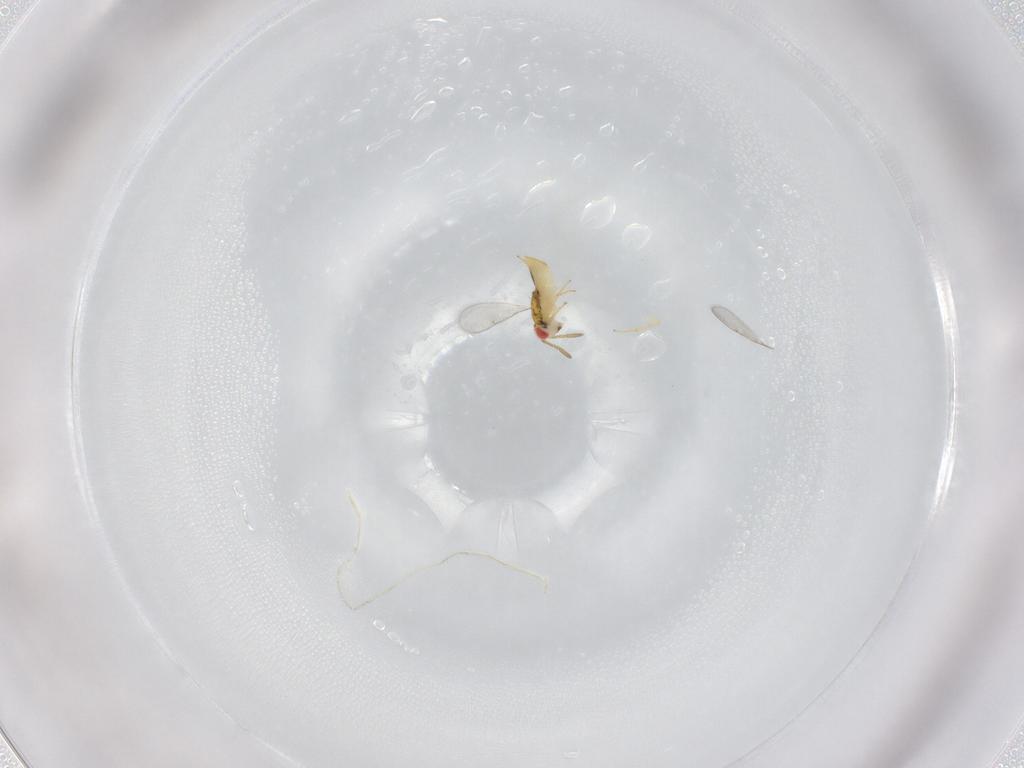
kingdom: Animalia
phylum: Arthropoda
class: Insecta
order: Hymenoptera
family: Aphelinidae
